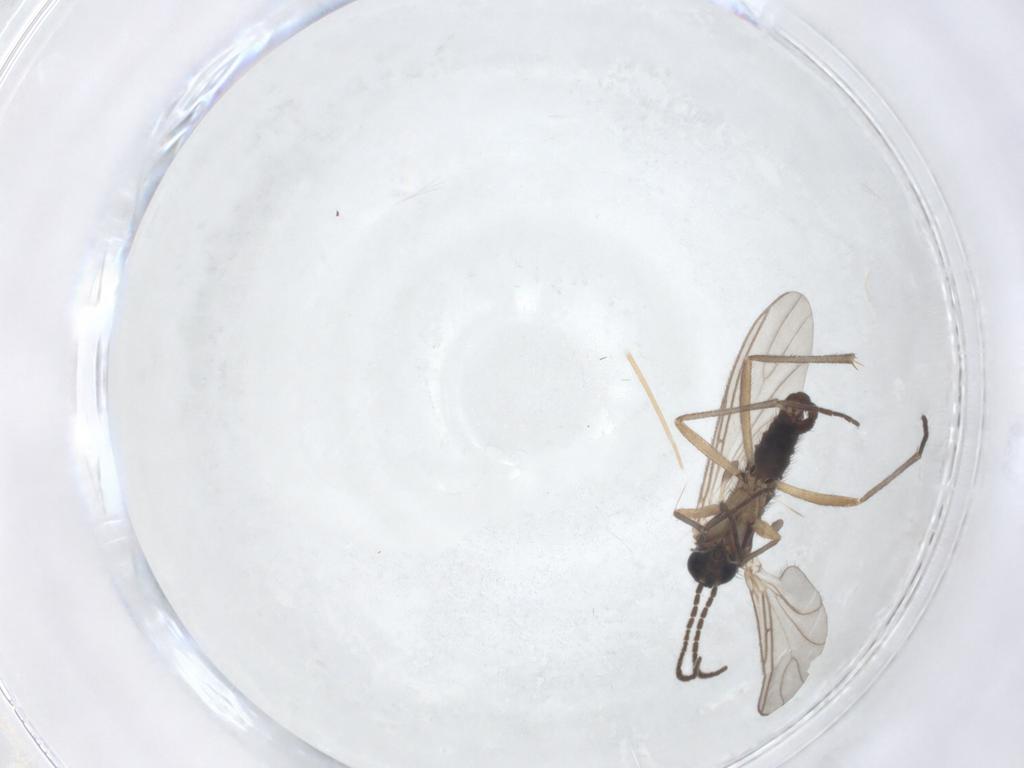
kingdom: Animalia
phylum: Arthropoda
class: Insecta
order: Diptera
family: Sciaridae
